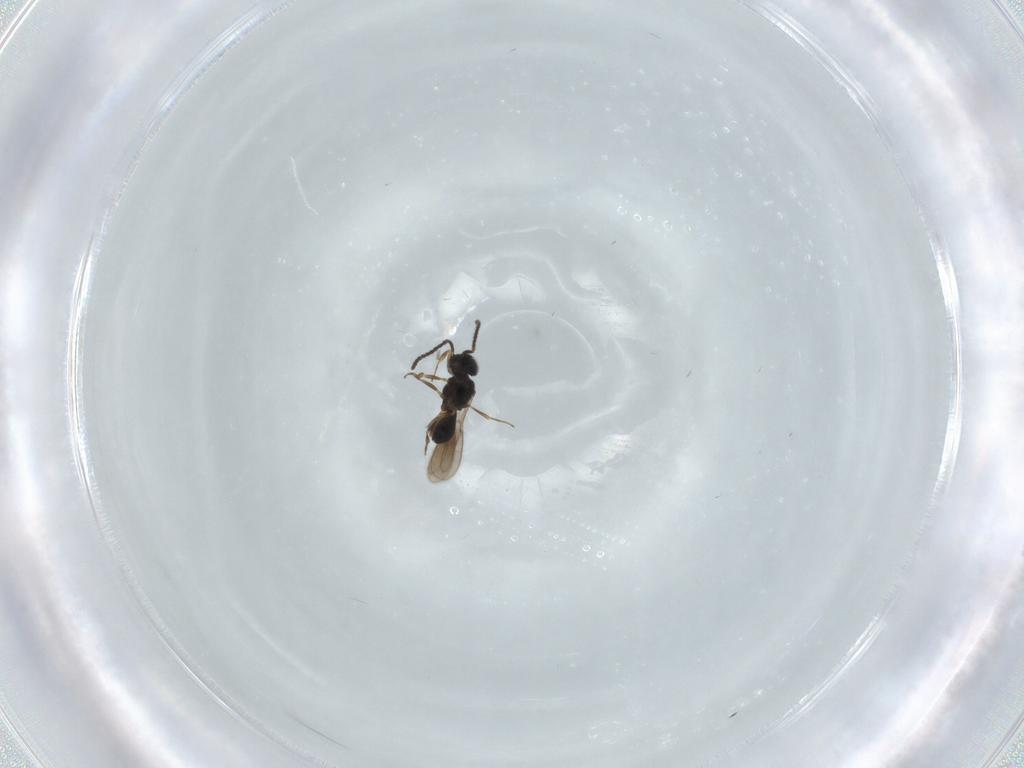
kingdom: Animalia
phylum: Arthropoda
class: Insecta
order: Hymenoptera
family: Scelionidae
